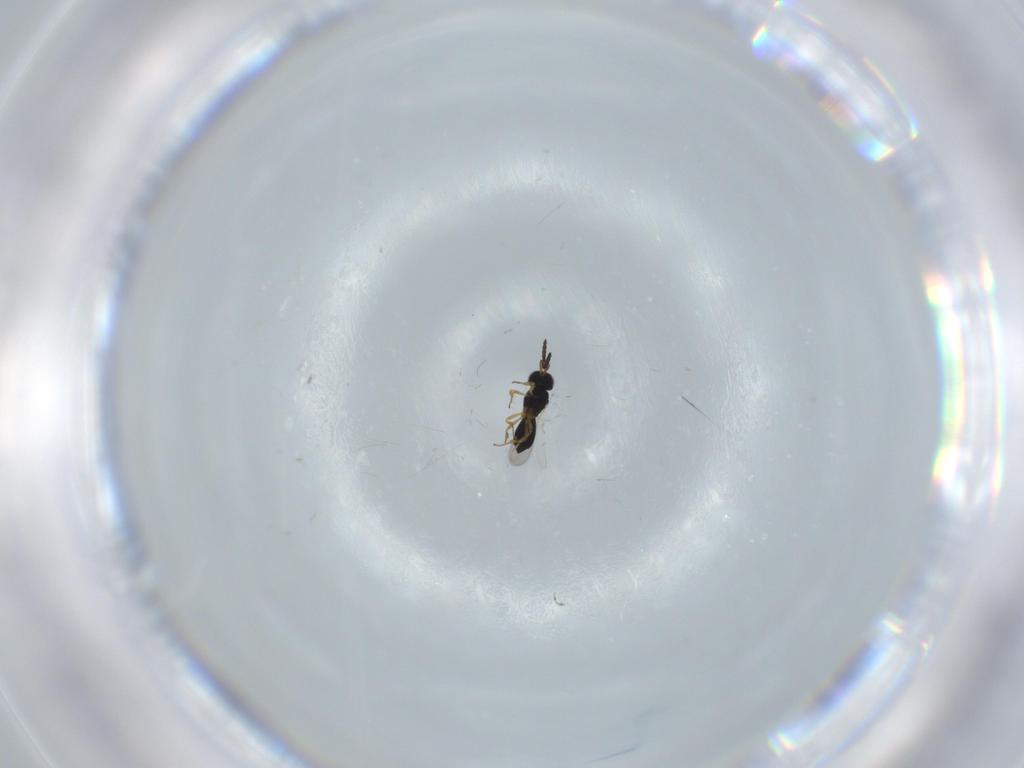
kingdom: Animalia
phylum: Arthropoda
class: Insecta
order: Hymenoptera
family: Scelionidae
